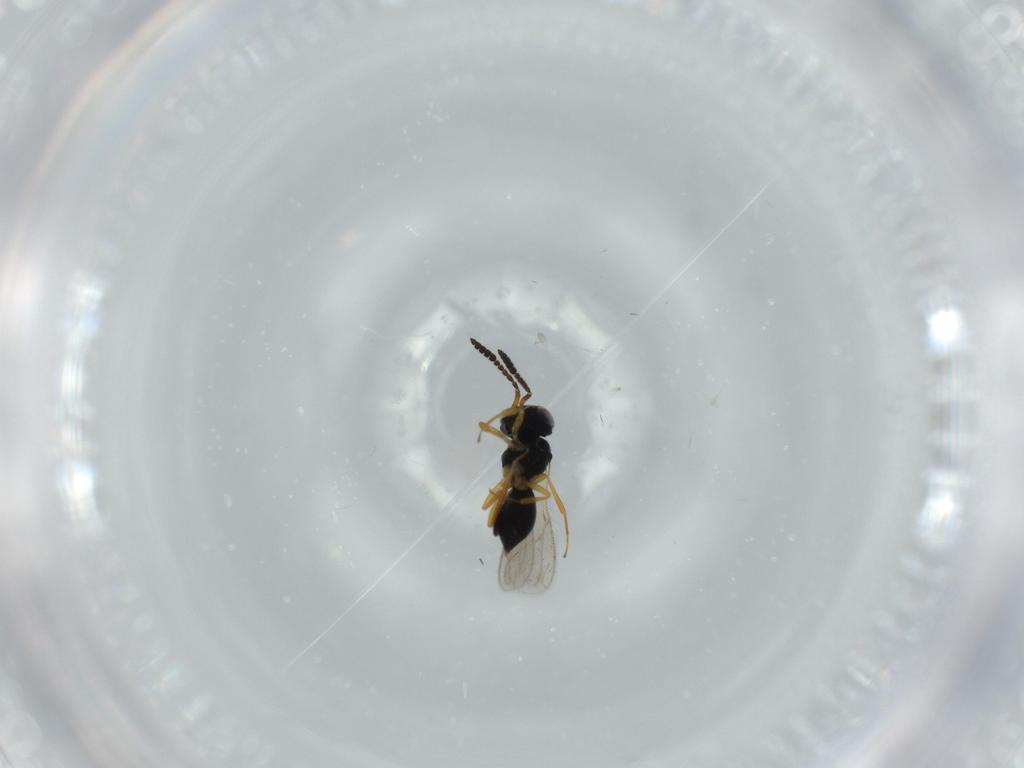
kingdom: Animalia
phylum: Arthropoda
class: Insecta
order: Hymenoptera
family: Scelionidae
